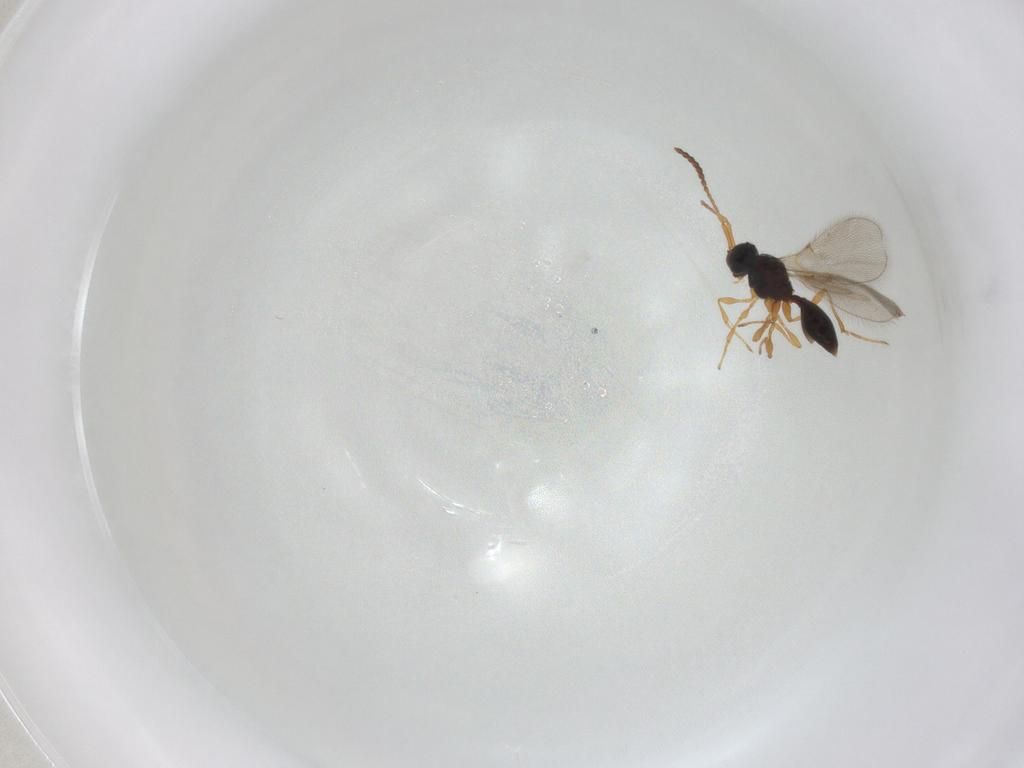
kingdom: Animalia
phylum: Arthropoda
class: Insecta
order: Hymenoptera
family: Diapriidae
